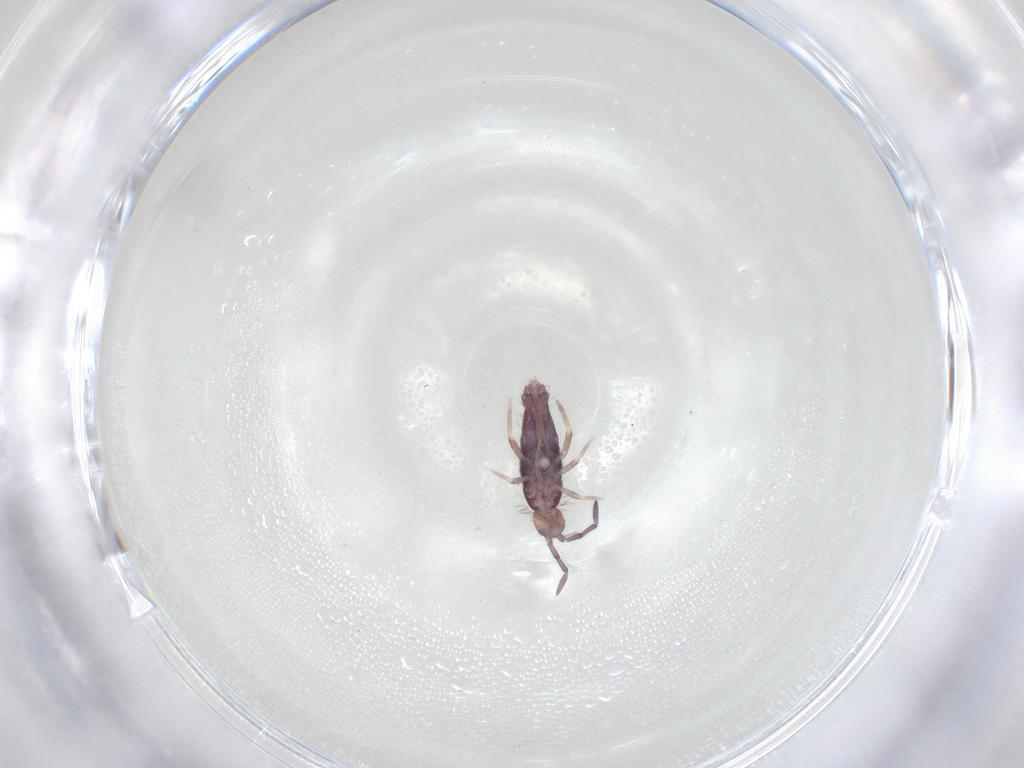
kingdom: Animalia
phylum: Arthropoda
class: Collembola
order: Entomobryomorpha
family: Entomobryidae
